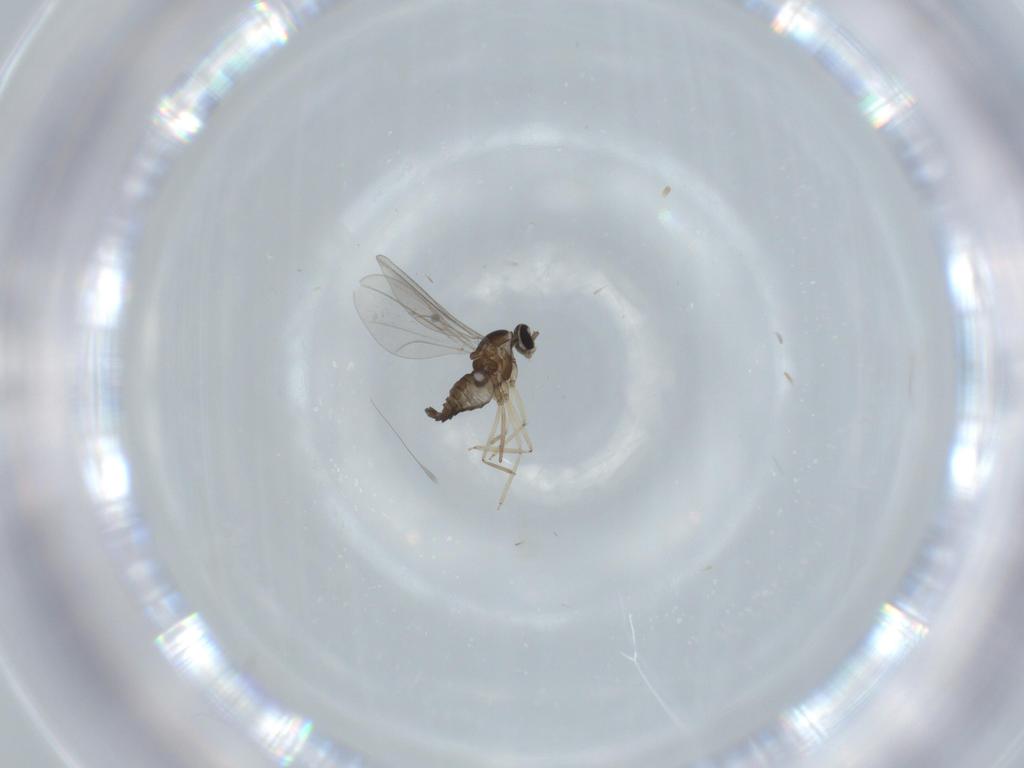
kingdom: Animalia
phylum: Arthropoda
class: Insecta
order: Diptera
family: Cecidomyiidae
